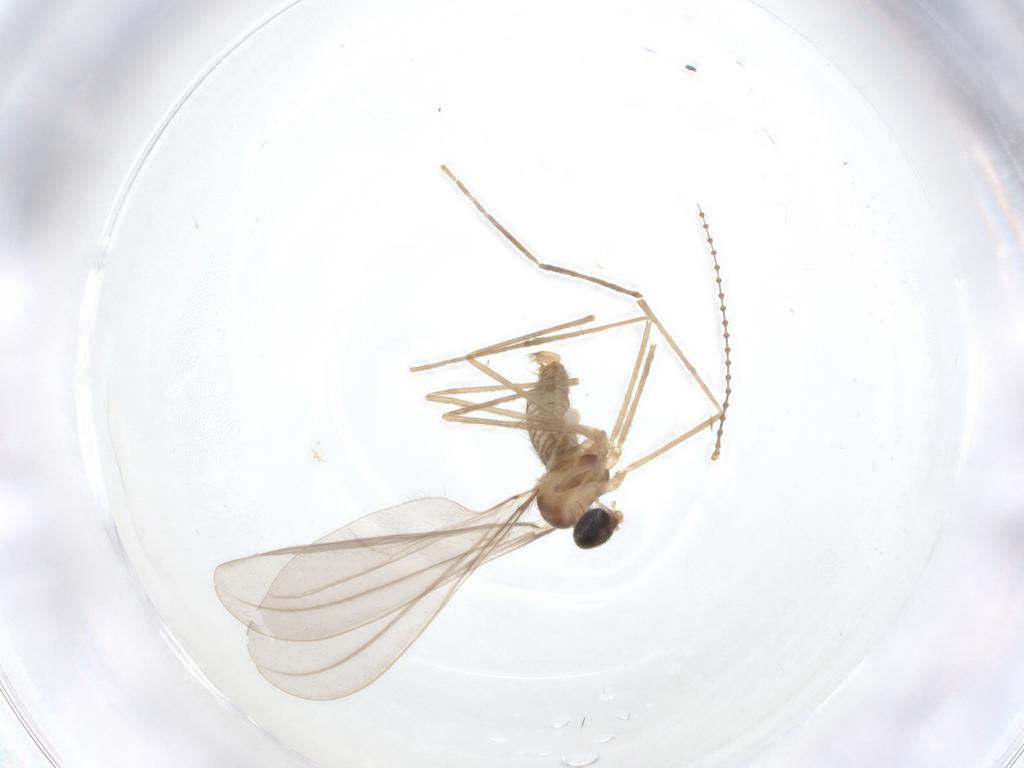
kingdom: Animalia
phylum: Arthropoda
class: Insecta
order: Diptera
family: Cecidomyiidae
